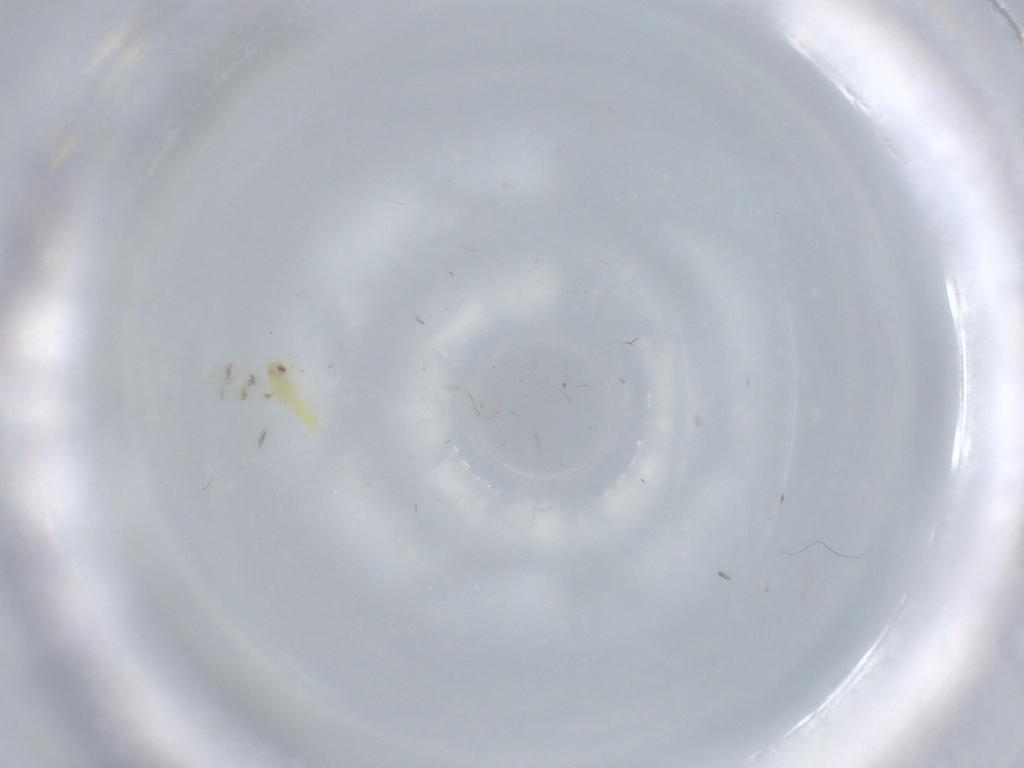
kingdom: Animalia
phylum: Arthropoda
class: Insecta
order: Hemiptera
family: Aleyrodidae
